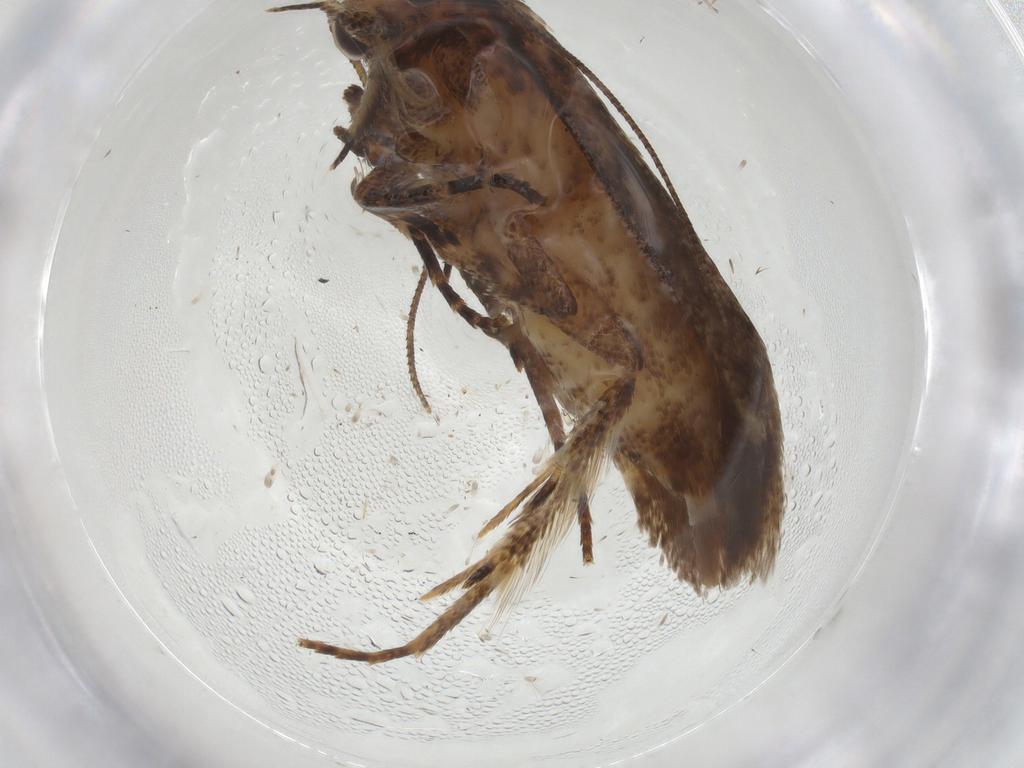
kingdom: Animalia
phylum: Arthropoda
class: Insecta
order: Lepidoptera
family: Gelechiidae
